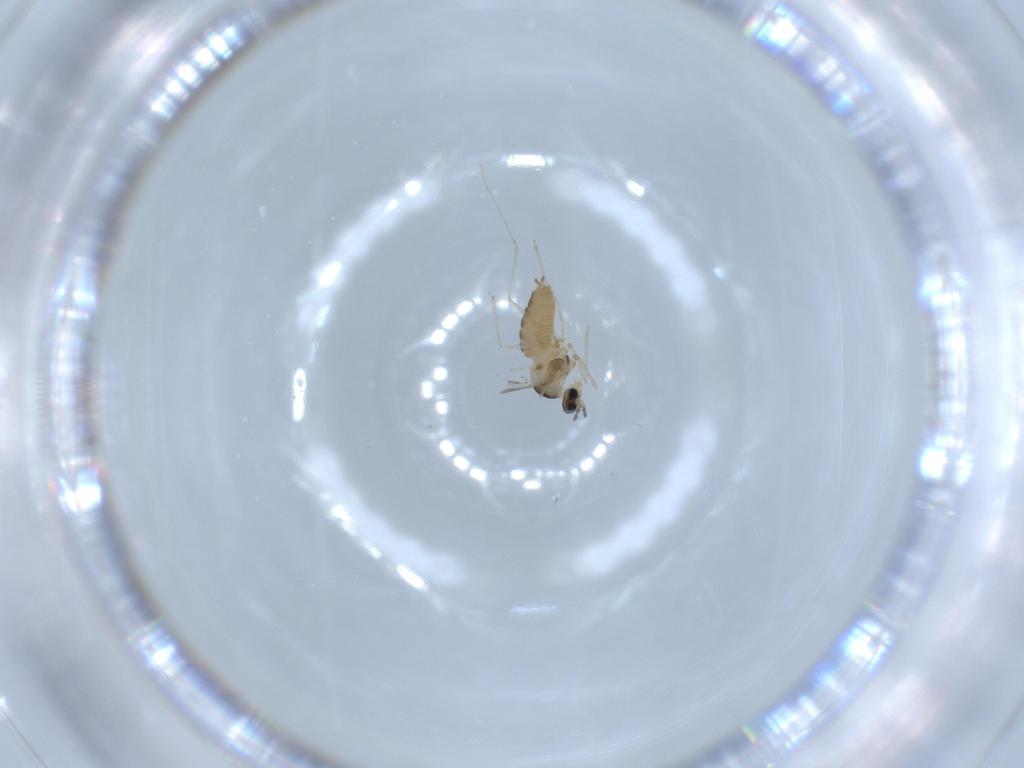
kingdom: Animalia
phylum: Arthropoda
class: Insecta
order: Diptera
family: Cecidomyiidae
